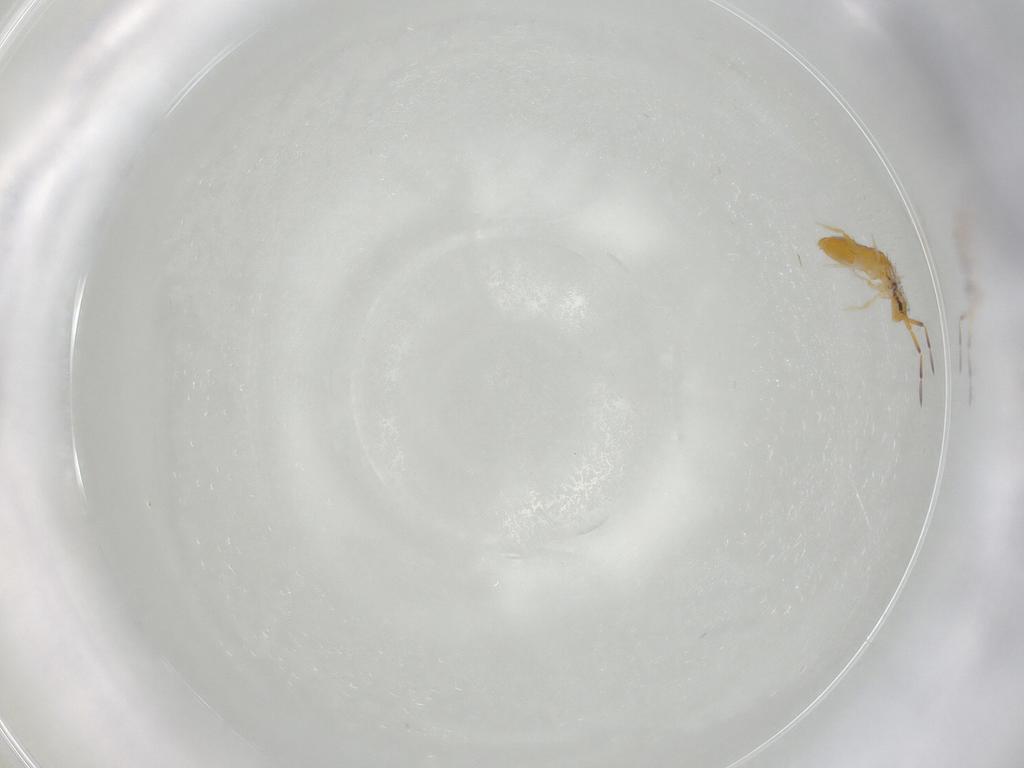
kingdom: Animalia
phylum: Arthropoda
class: Collembola
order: Entomobryomorpha
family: Entomobryidae
